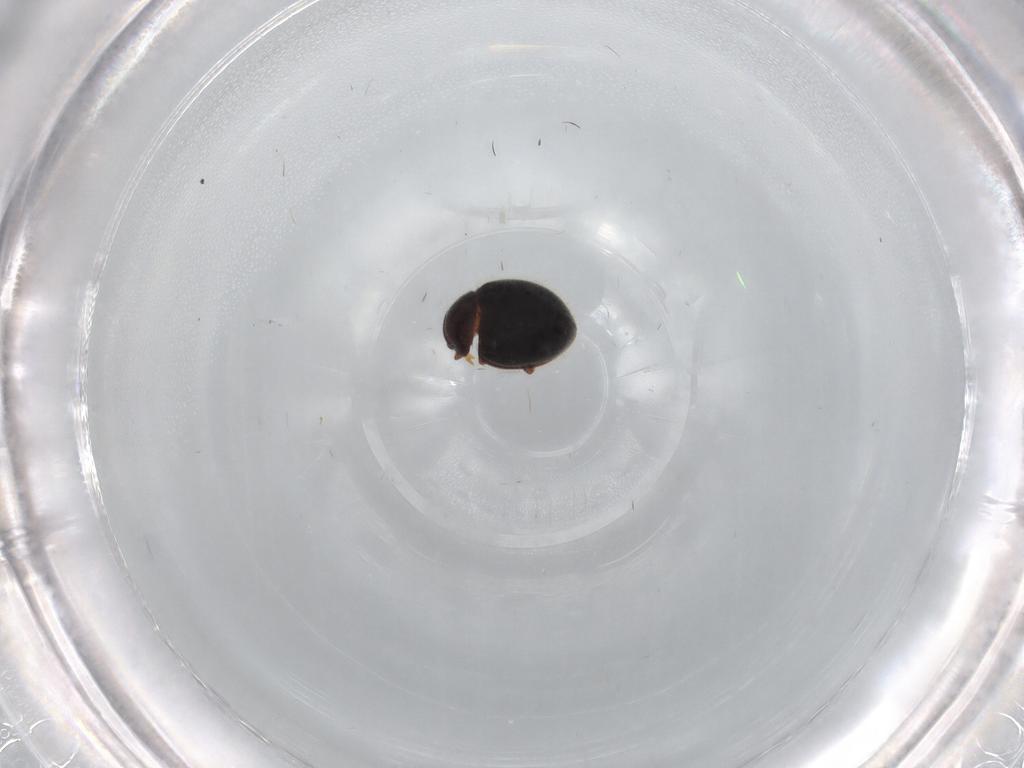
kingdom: Animalia
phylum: Arthropoda
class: Insecta
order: Coleoptera
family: Coccinellidae
